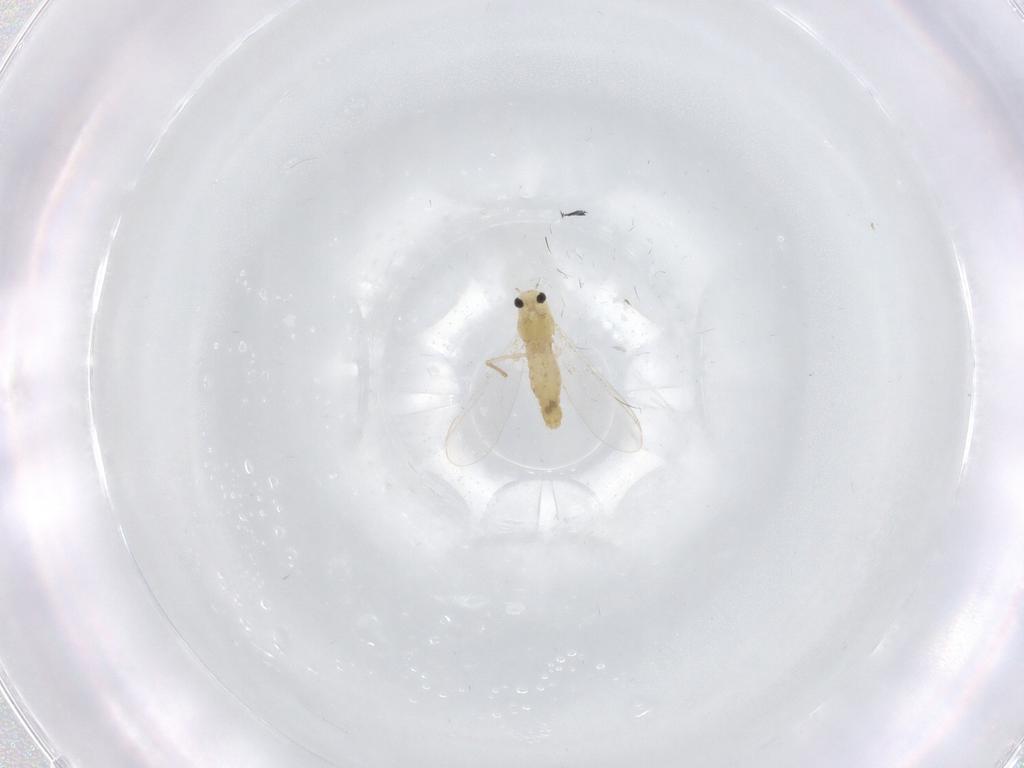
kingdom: Animalia
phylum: Arthropoda
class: Insecta
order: Diptera
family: Chironomidae
